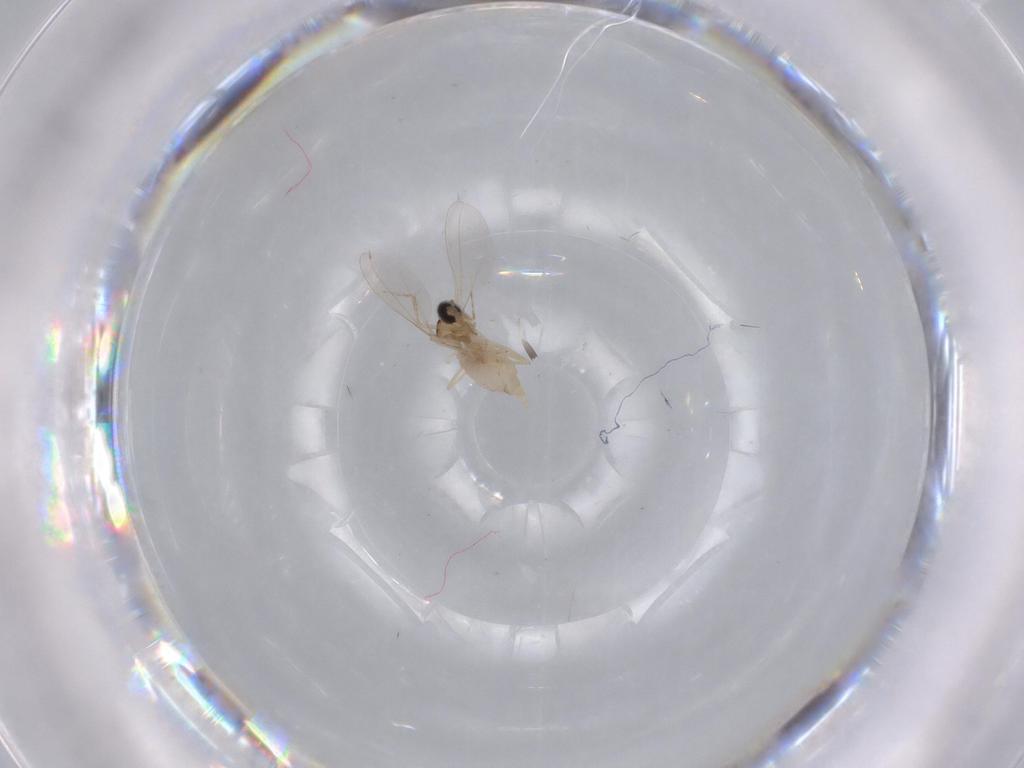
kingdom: Animalia
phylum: Arthropoda
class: Insecta
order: Diptera
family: Cecidomyiidae
